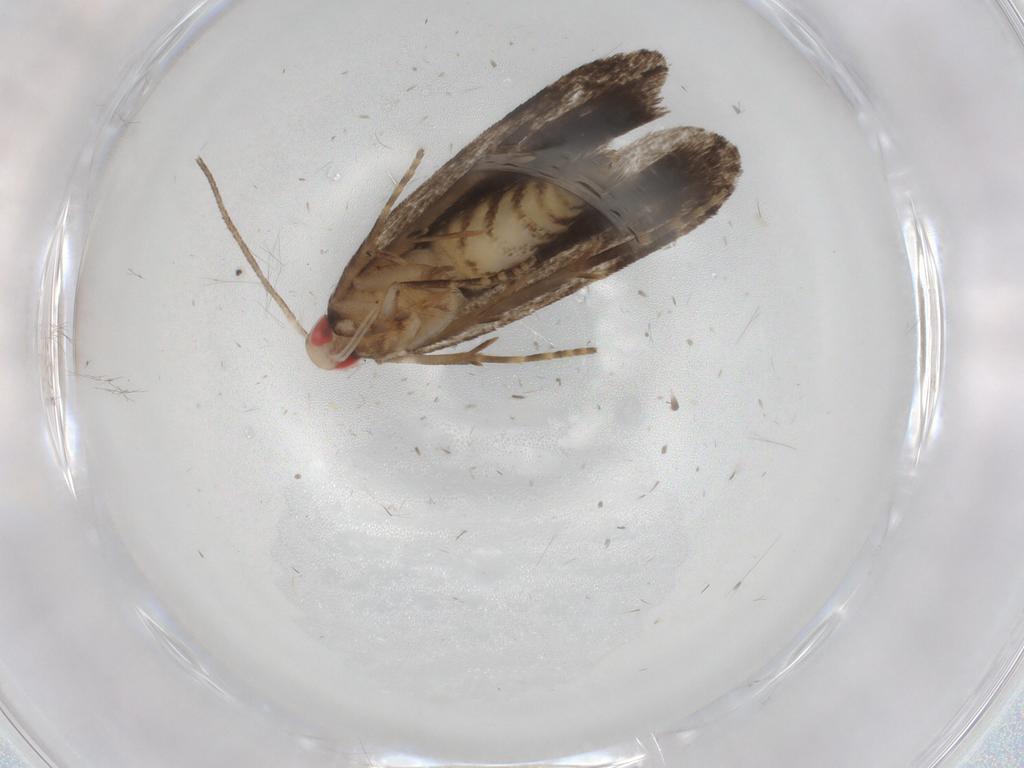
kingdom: Animalia
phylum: Arthropoda
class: Insecta
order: Lepidoptera
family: Gelechiidae
